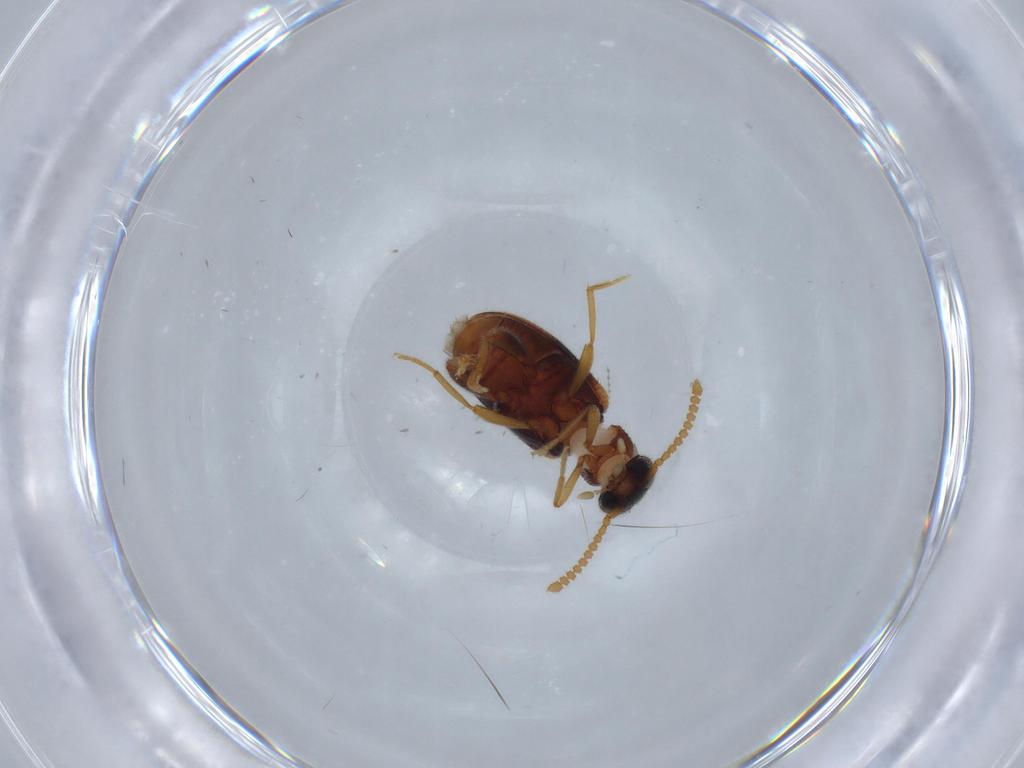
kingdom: Animalia
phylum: Arthropoda
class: Insecta
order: Coleoptera
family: Aderidae
